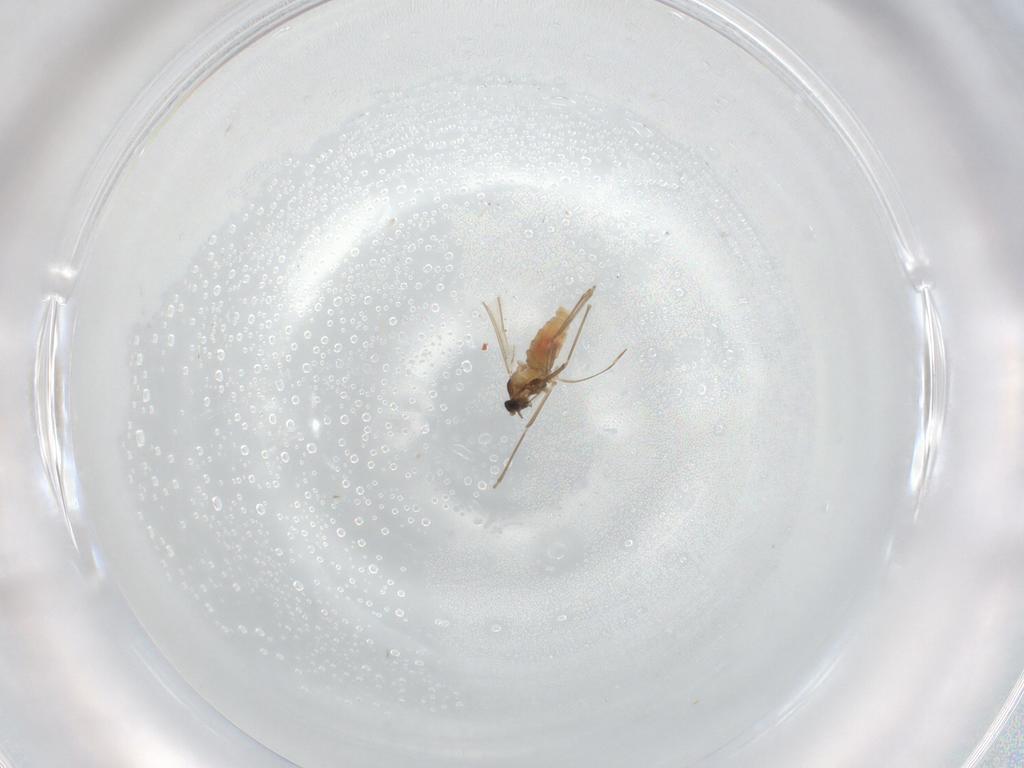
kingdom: Animalia
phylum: Arthropoda
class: Insecta
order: Diptera
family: Cecidomyiidae
